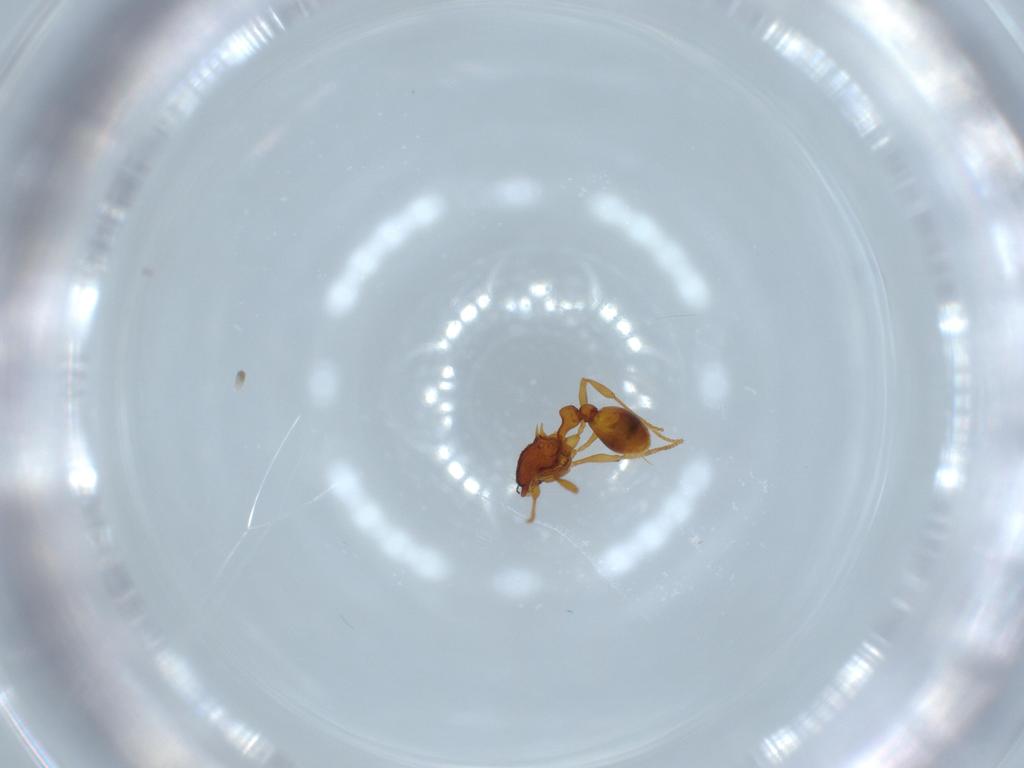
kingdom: Animalia
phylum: Arthropoda
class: Insecta
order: Hymenoptera
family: Formicidae
